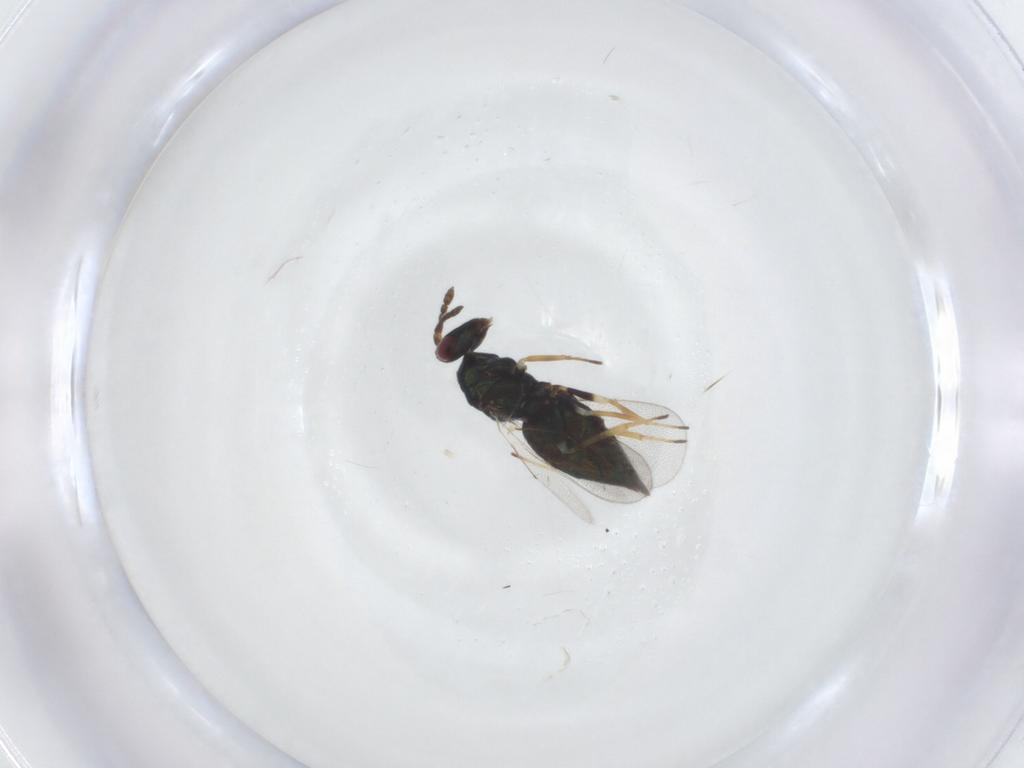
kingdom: Animalia
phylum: Arthropoda
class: Insecta
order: Hymenoptera
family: Eulophidae
